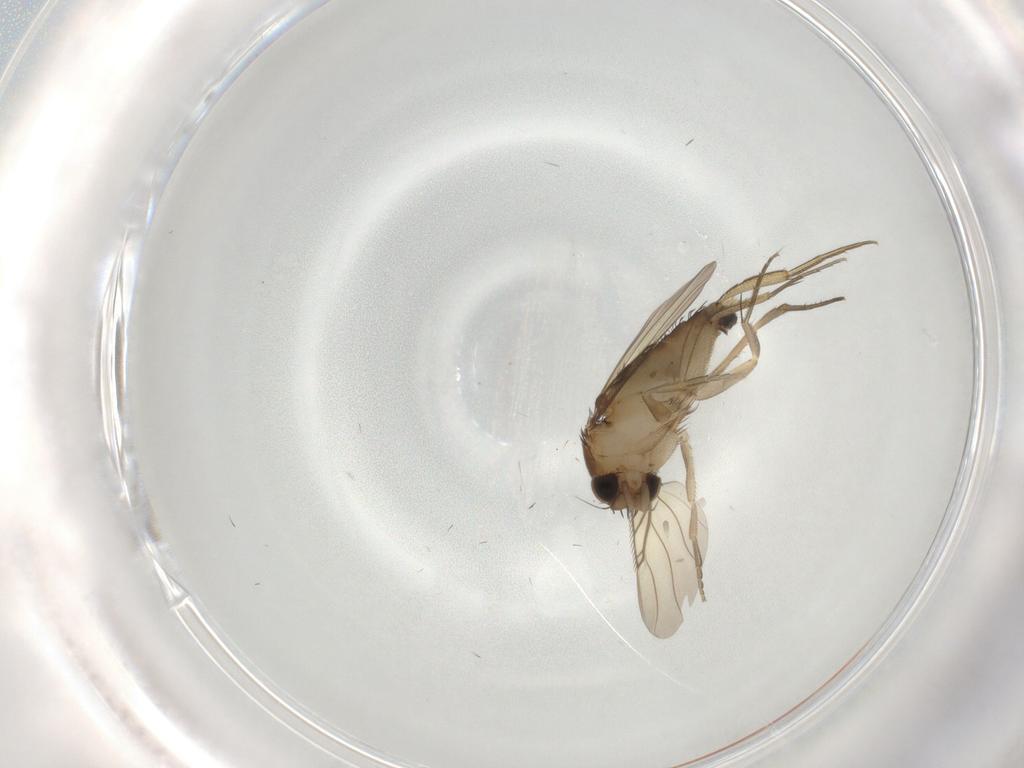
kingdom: Animalia
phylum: Arthropoda
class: Insecta
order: Diptera
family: Phoridae
